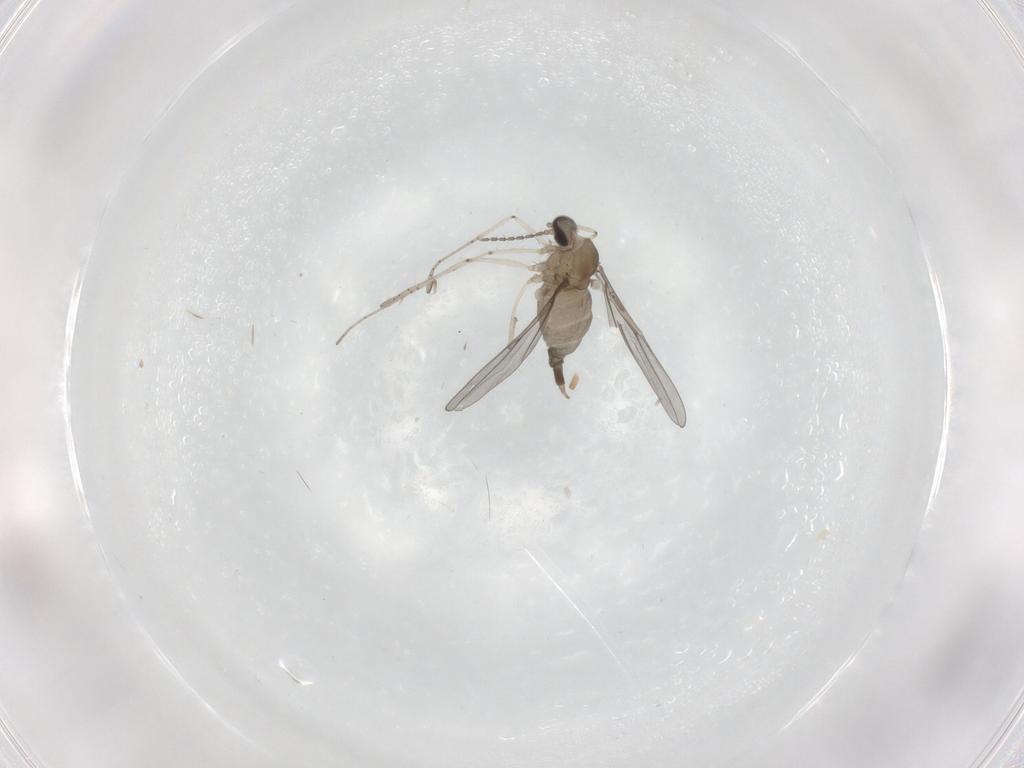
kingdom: Animalia
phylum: Arthropoda
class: Insecta
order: Diptera
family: Cecidomyiidae
